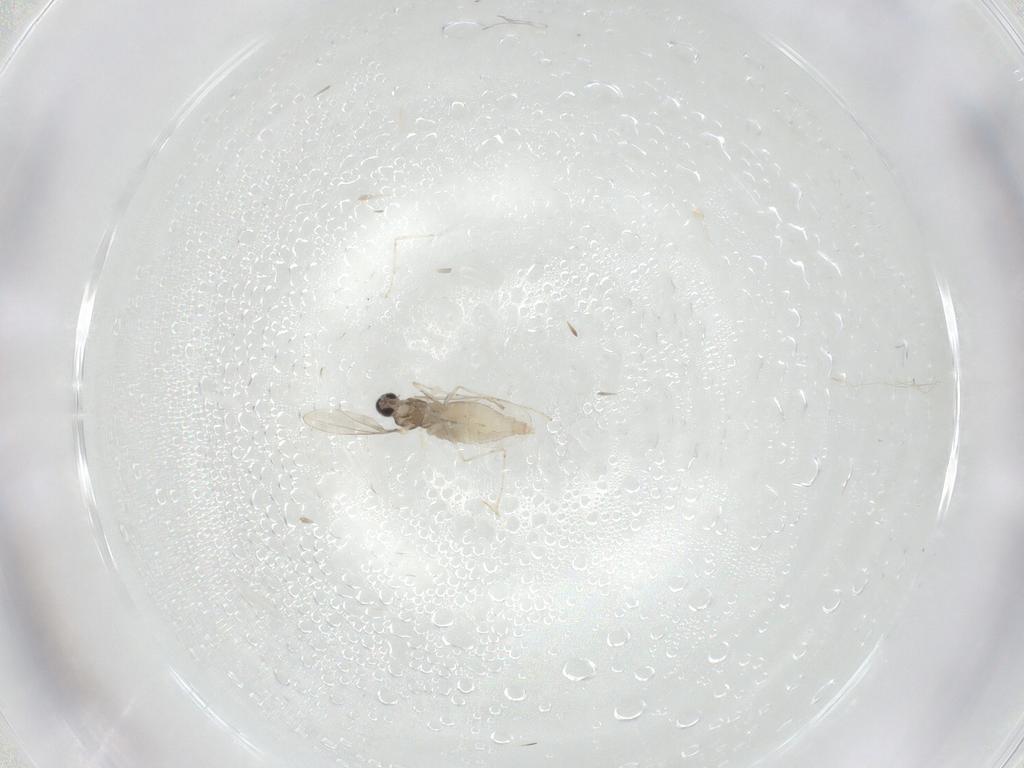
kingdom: Animalia
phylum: Arthropoda
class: Insecta
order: Diptera
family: Cecidomyiidae
